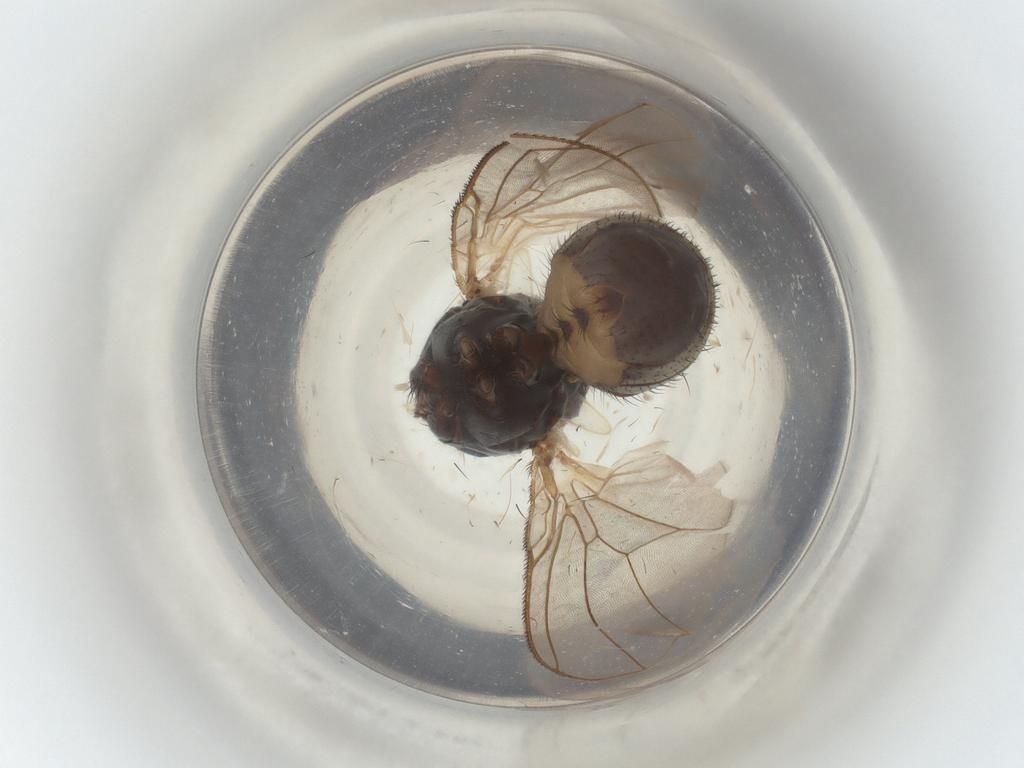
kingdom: Animalia
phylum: Arthropoda
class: Insecta
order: Diptera
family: Muscidae
